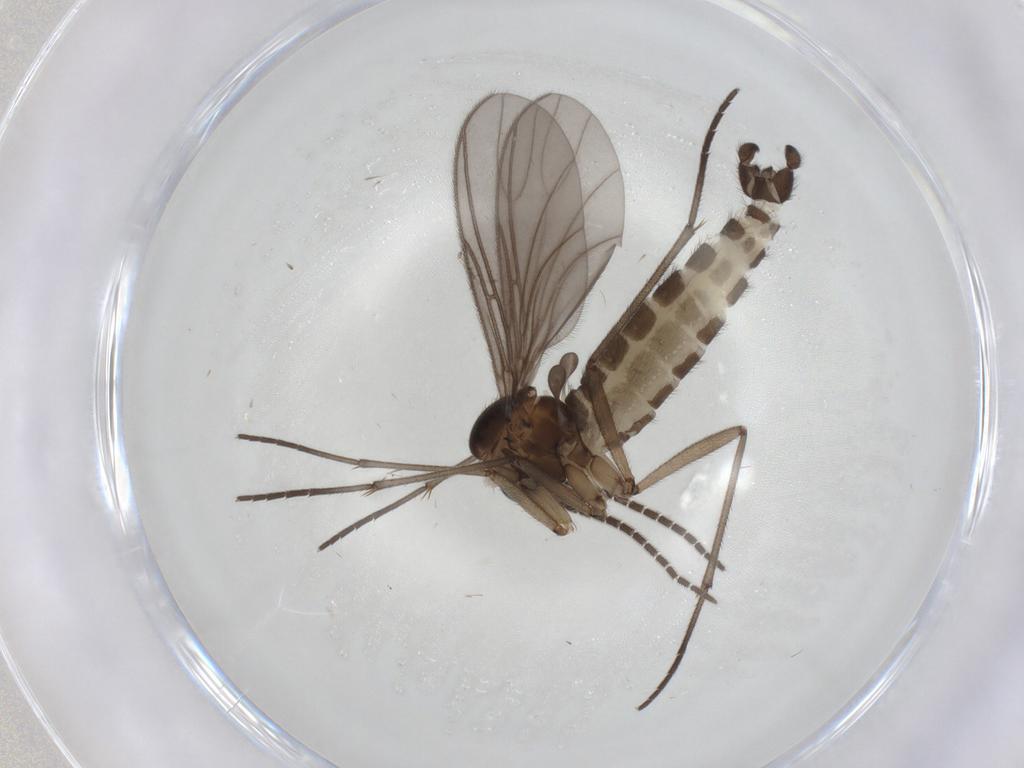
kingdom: Animalia
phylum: Arthropoda
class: Insecta
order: Diptera
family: Sciaridae
